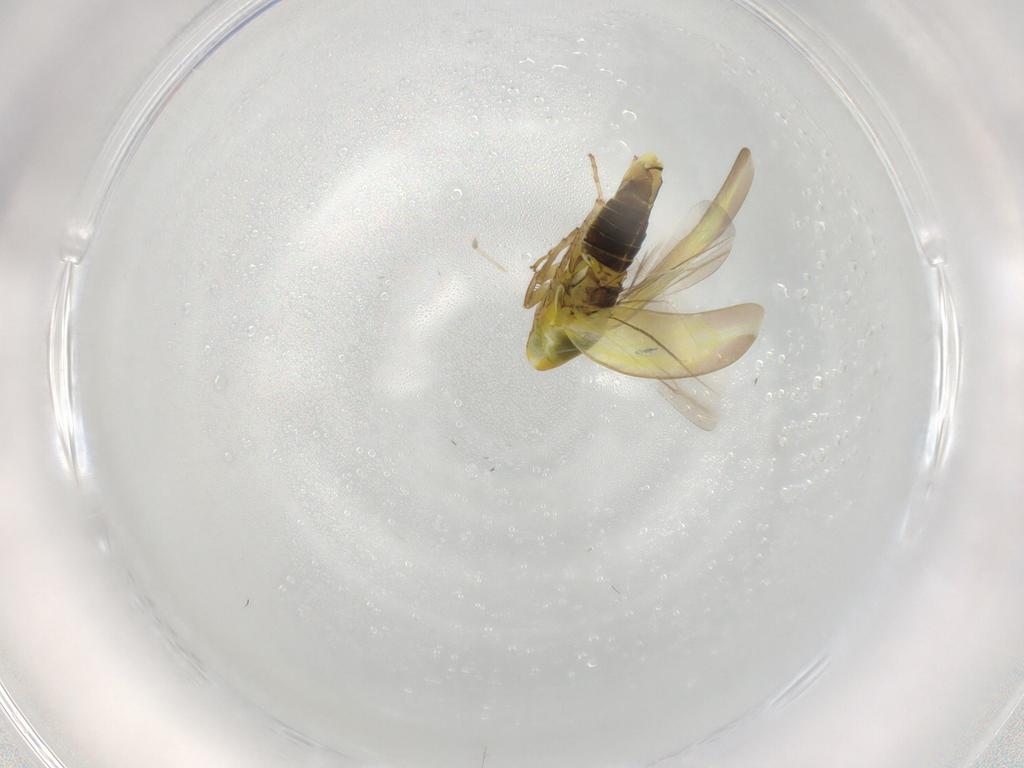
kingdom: Animalia
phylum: Arthropoda
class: Insecta
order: Hemiptera
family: Cicadellidae
